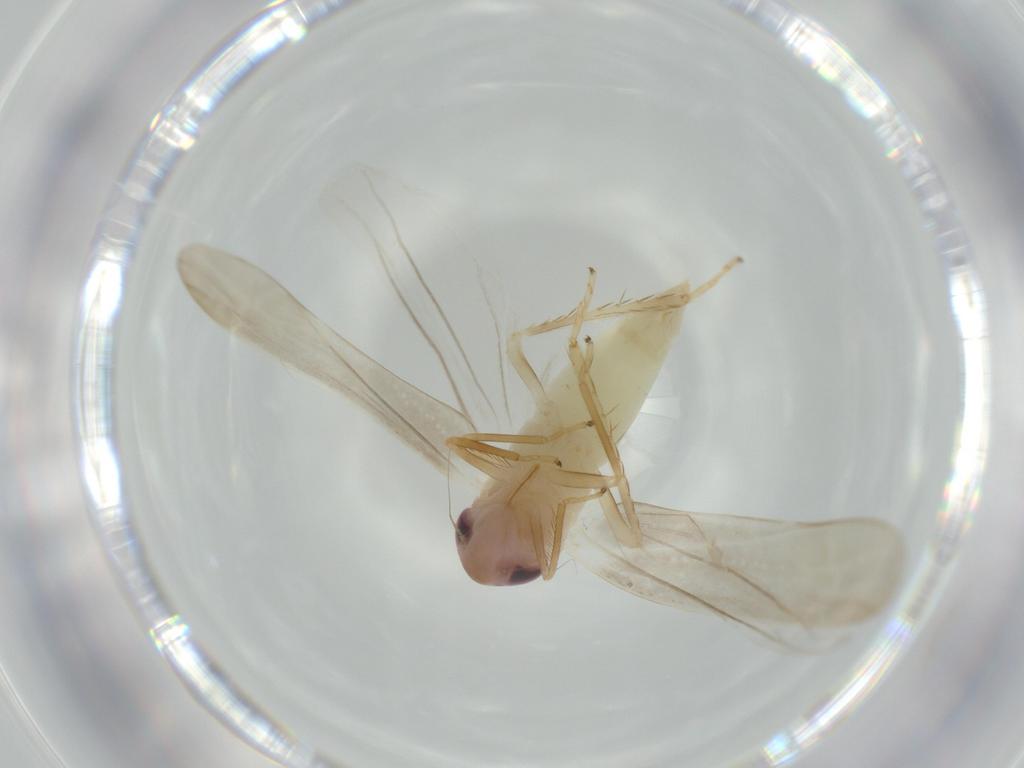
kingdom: Animalia
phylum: Arthropoda
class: Insecta
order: Hemiptera
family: Cicadellidae
